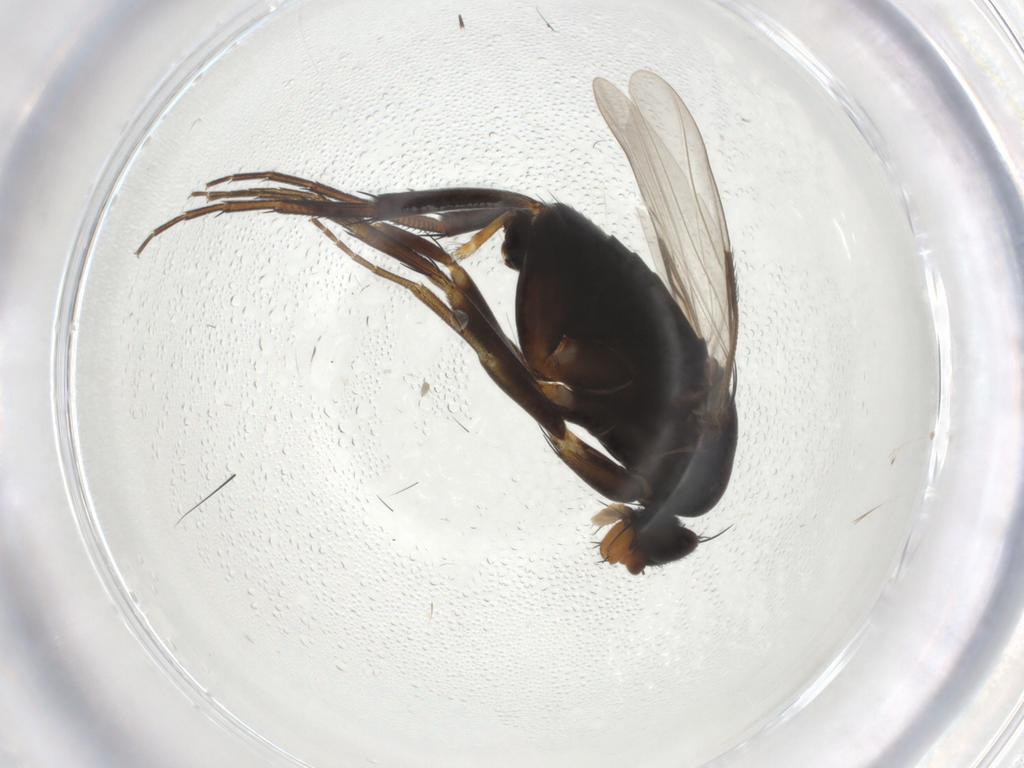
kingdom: Animalia
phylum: Arthropoda
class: Insecta
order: Diptera
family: Phoridae
